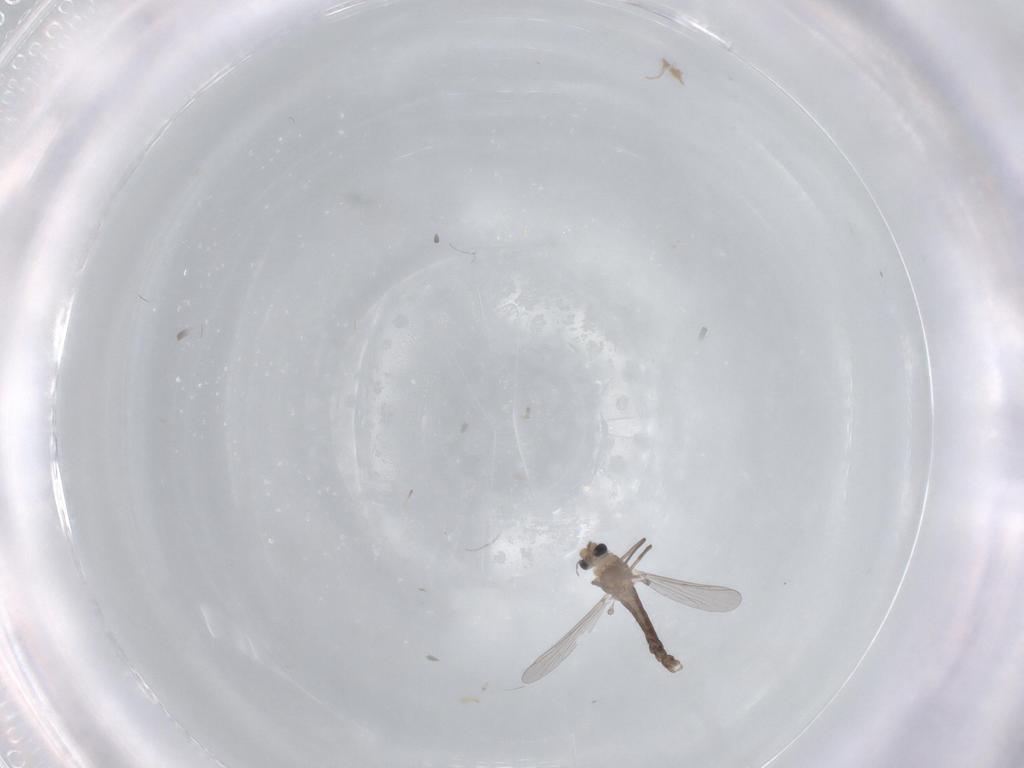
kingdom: Animalia
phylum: Arthropoda
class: Insecta
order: Diptera
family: Chironomidae
